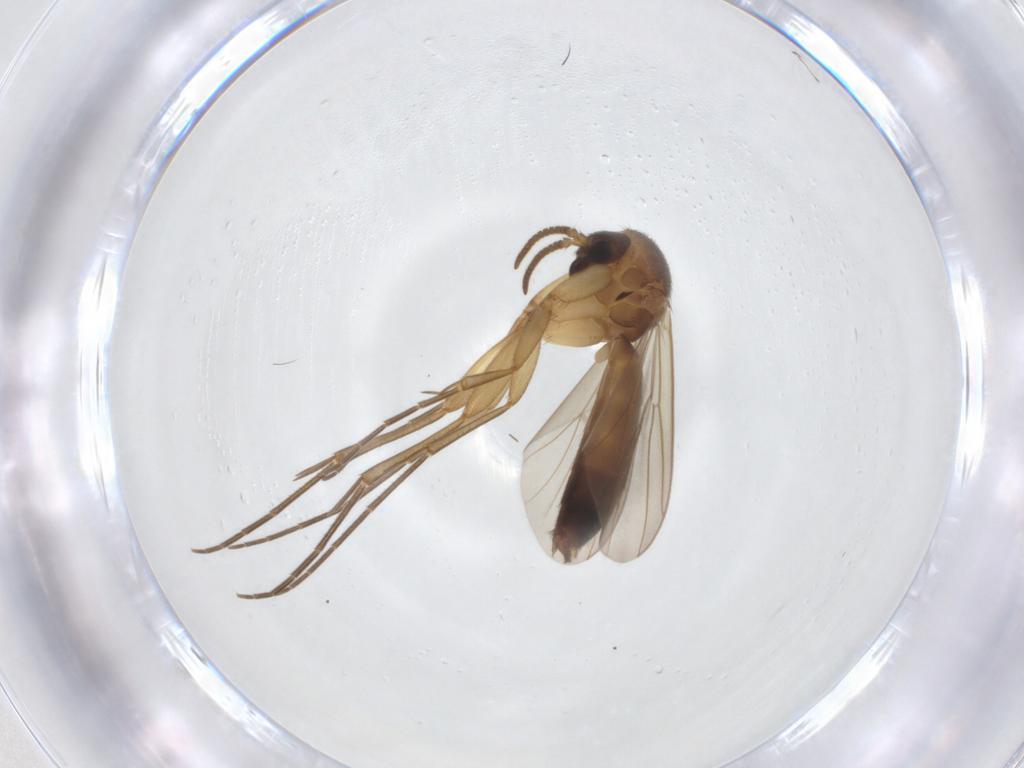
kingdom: Animalia
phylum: Arthropoda
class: Insecta
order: Diptera
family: Mycetophilidae
